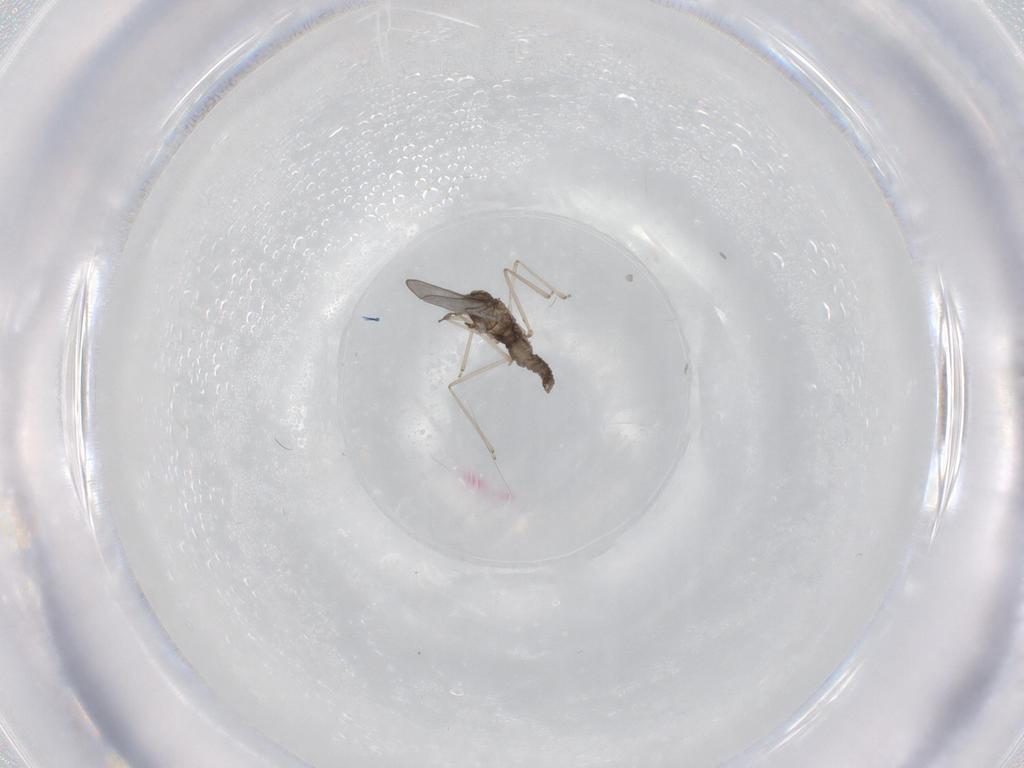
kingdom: Animalia
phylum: Arthropoda
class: Insecta
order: Diptera
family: Cecidomyiidae
